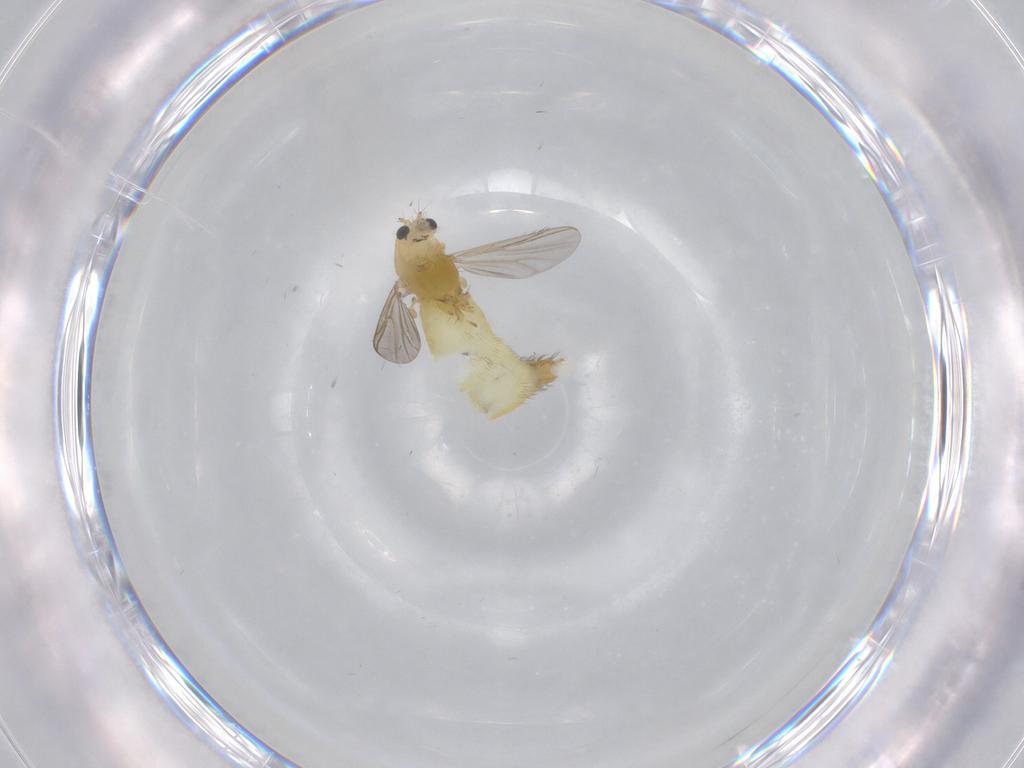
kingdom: Animalia
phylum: Arthropoda
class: Insecta
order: Diptera
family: Chironomidae
